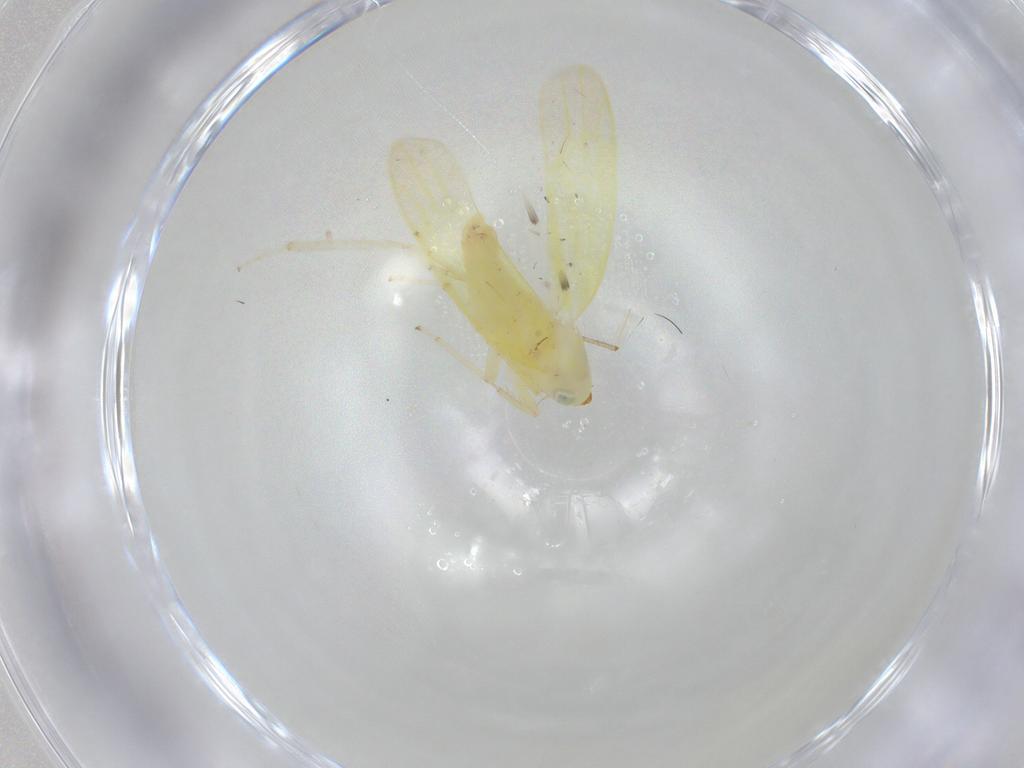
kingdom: Animalia
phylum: Arthropoda
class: Insecta
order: Hemiptera
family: Cicadellidae
